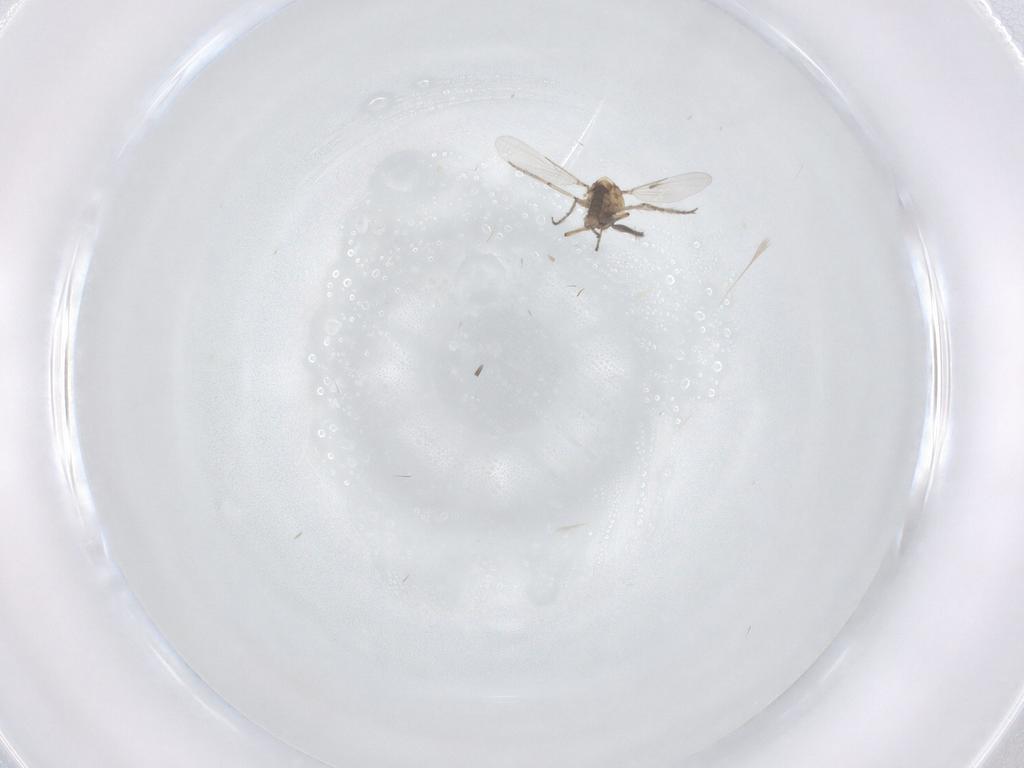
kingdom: Animalia
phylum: Arthropoda
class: Insecta
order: Diptera
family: Ceratopogonidae
